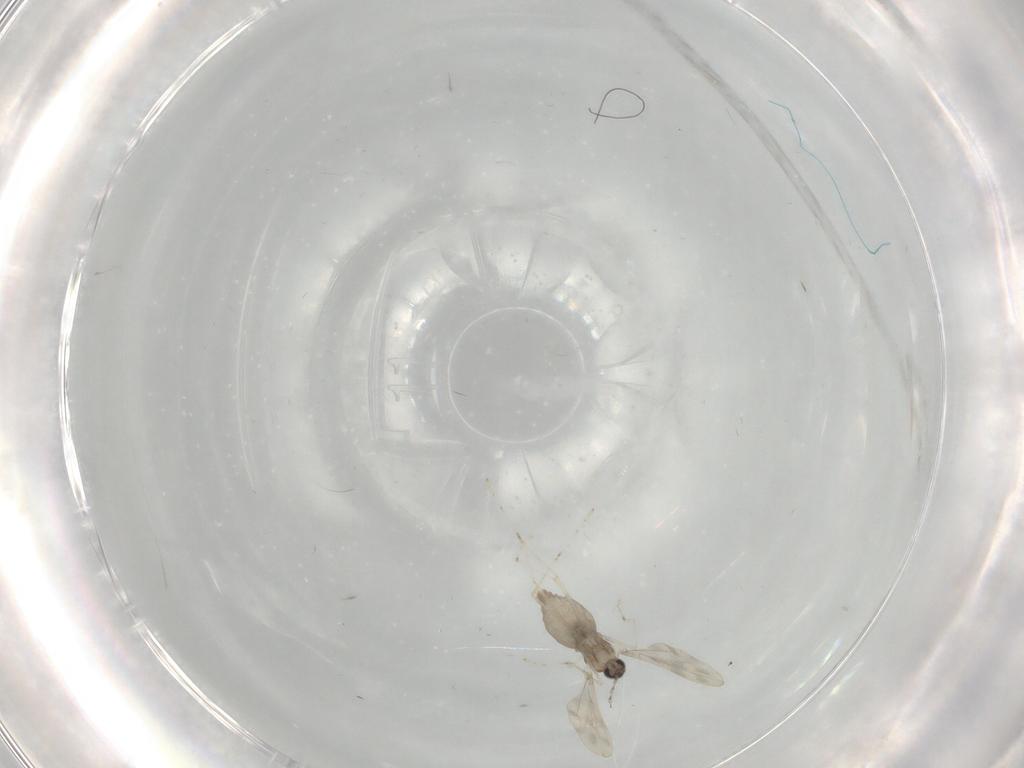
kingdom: Animalia
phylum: Arthropoda
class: Insecta
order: Diptera
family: Cecidomyiidae
